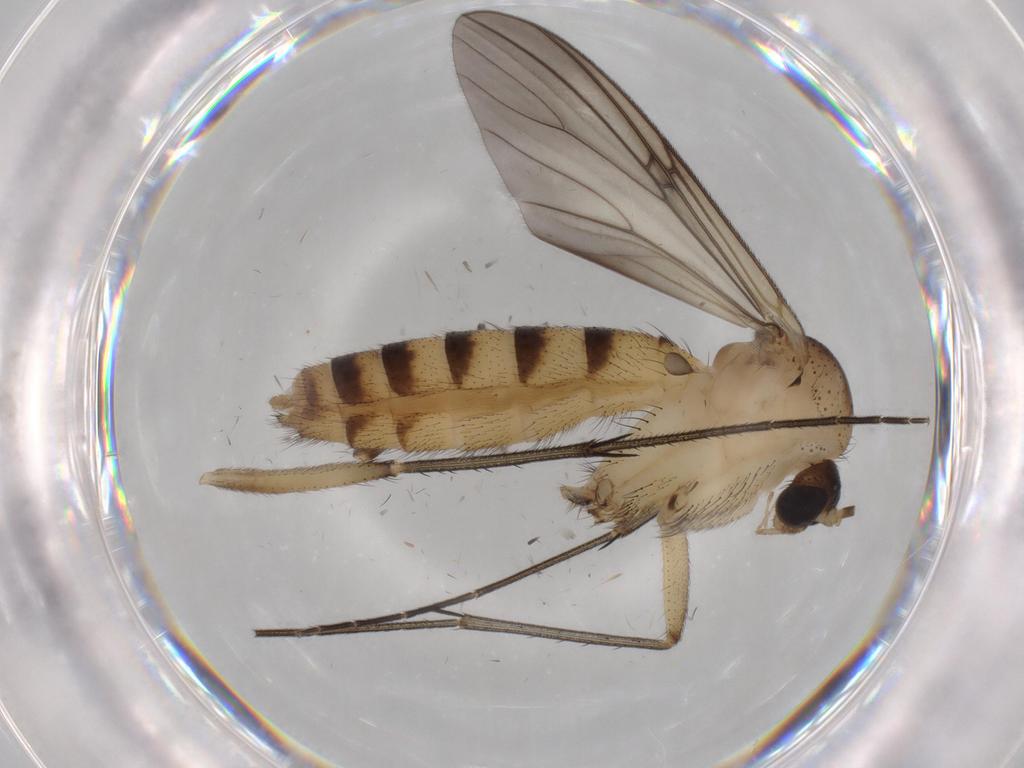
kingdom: Animalia
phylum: Arthropoda
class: Insecta
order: Diptera
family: Mycetophilidae
